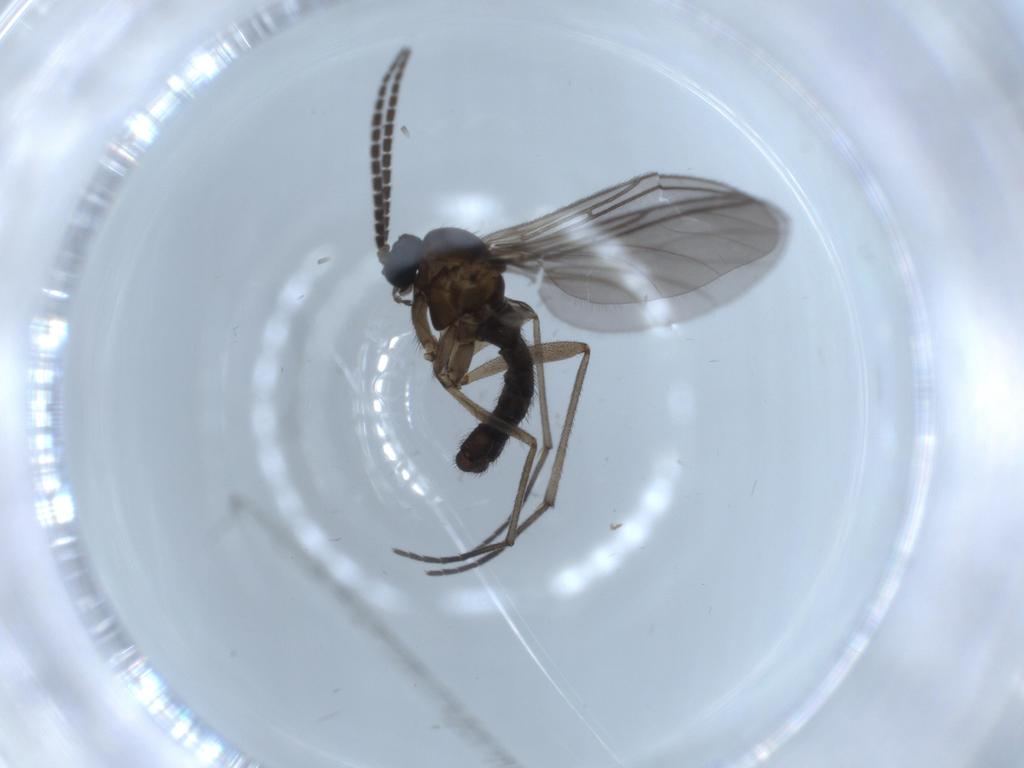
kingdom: Animalia
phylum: Arthropoda
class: Insecta
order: Diptera
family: Sciaridae
